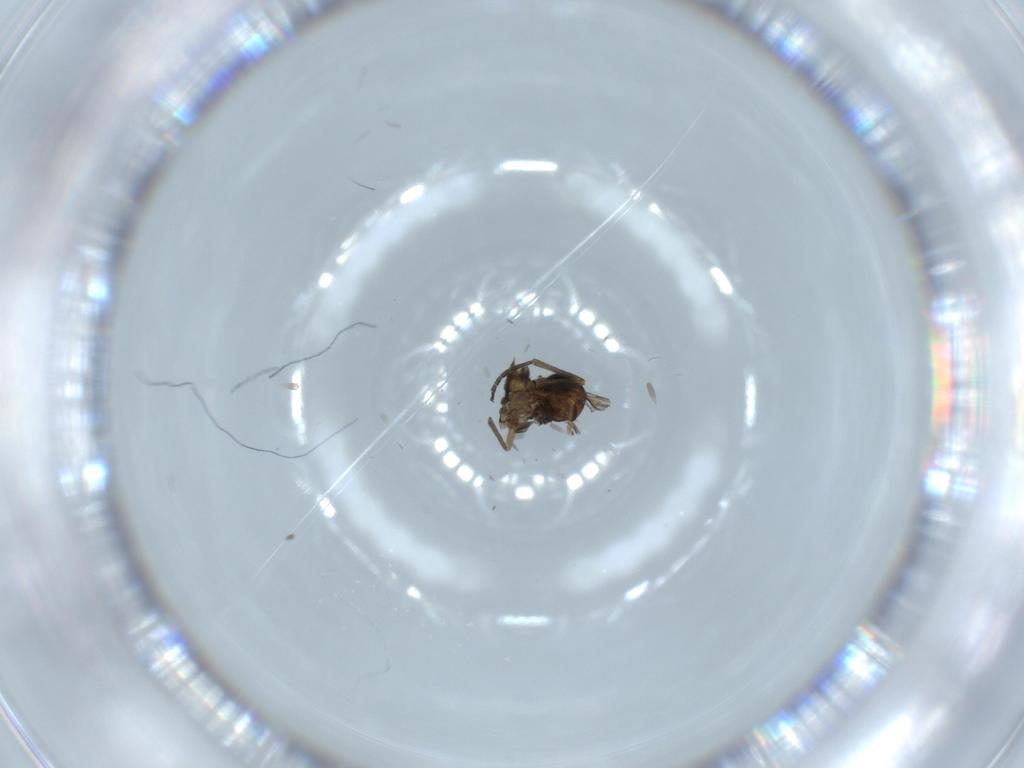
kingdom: Animalia
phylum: Arthropoda
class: Insecta
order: Diptera
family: Sciaridae
